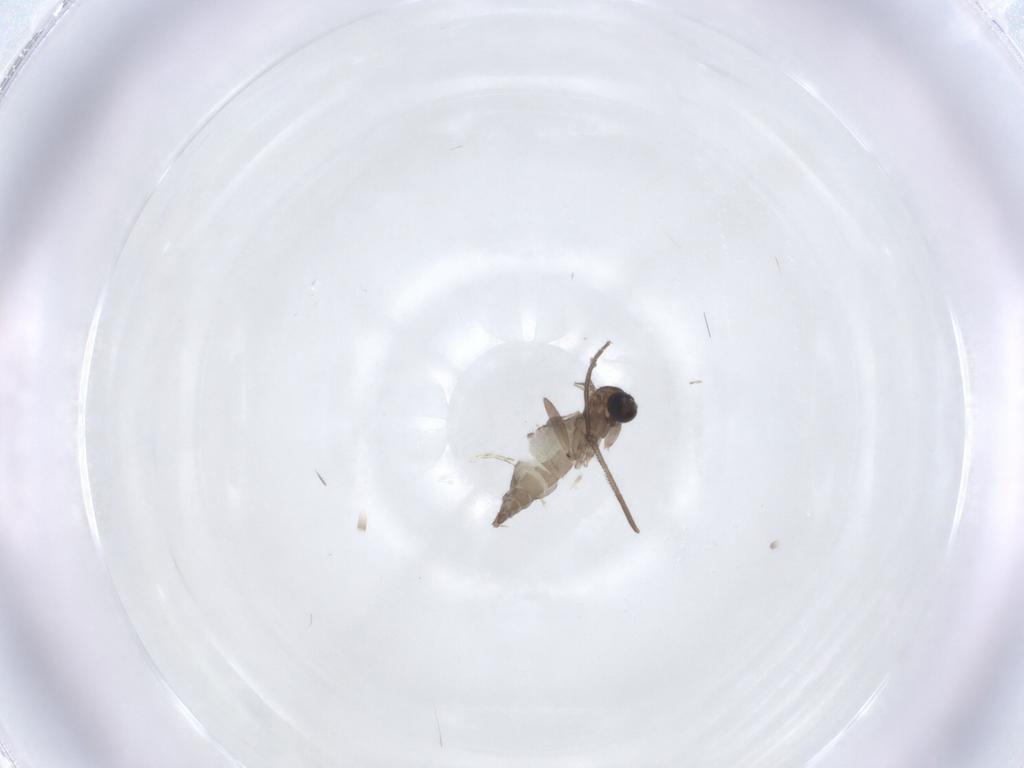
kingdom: Animalia
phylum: Arthropoda
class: Insecta
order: Diptera
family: Sciaridae
